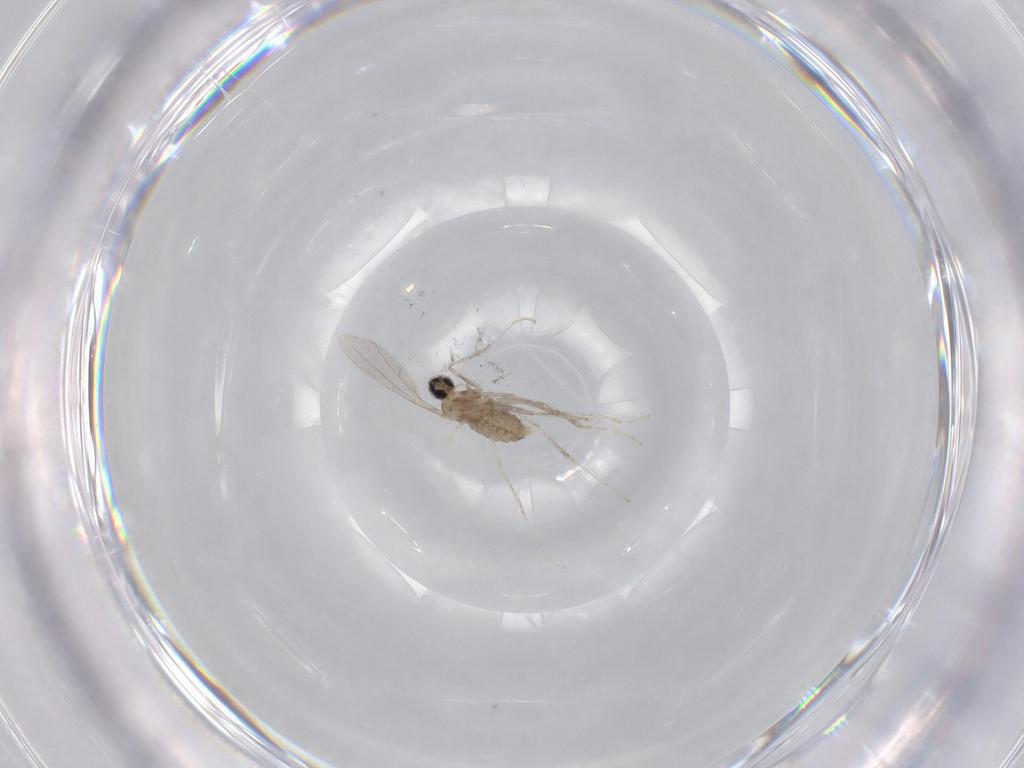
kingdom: Animalia
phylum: Arthropoda
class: Insecta
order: Diptera
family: Cecidomyiidae
